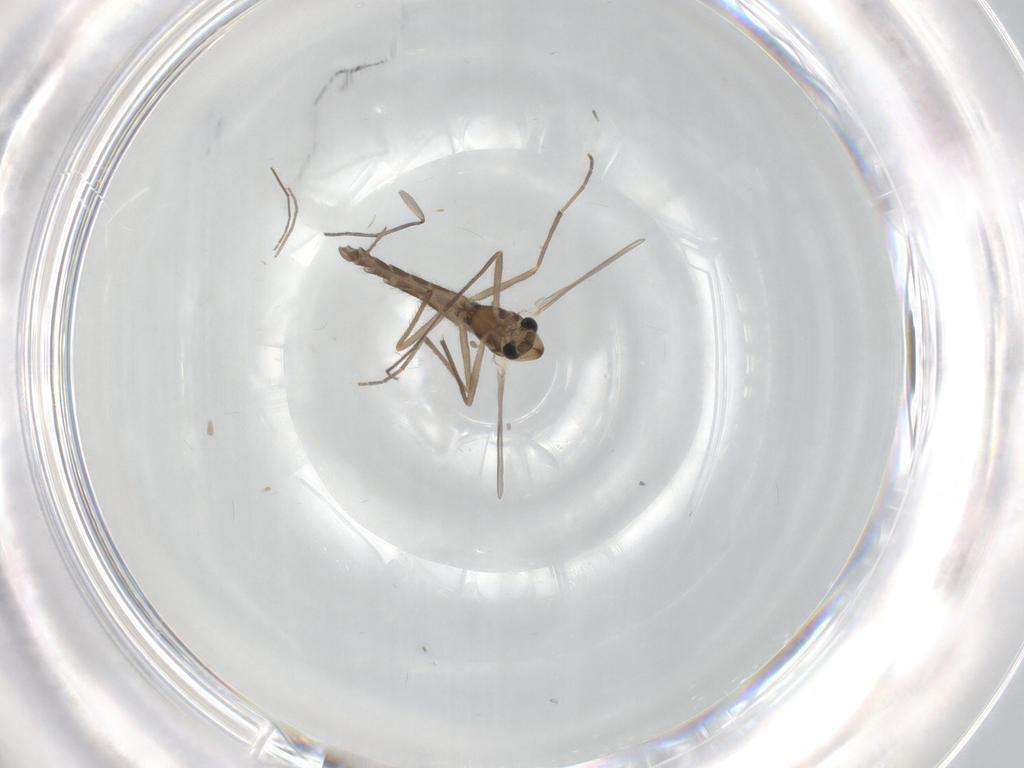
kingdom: Animalia
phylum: Arthropoda
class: Insecta
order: Diptera
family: Chironomidae
